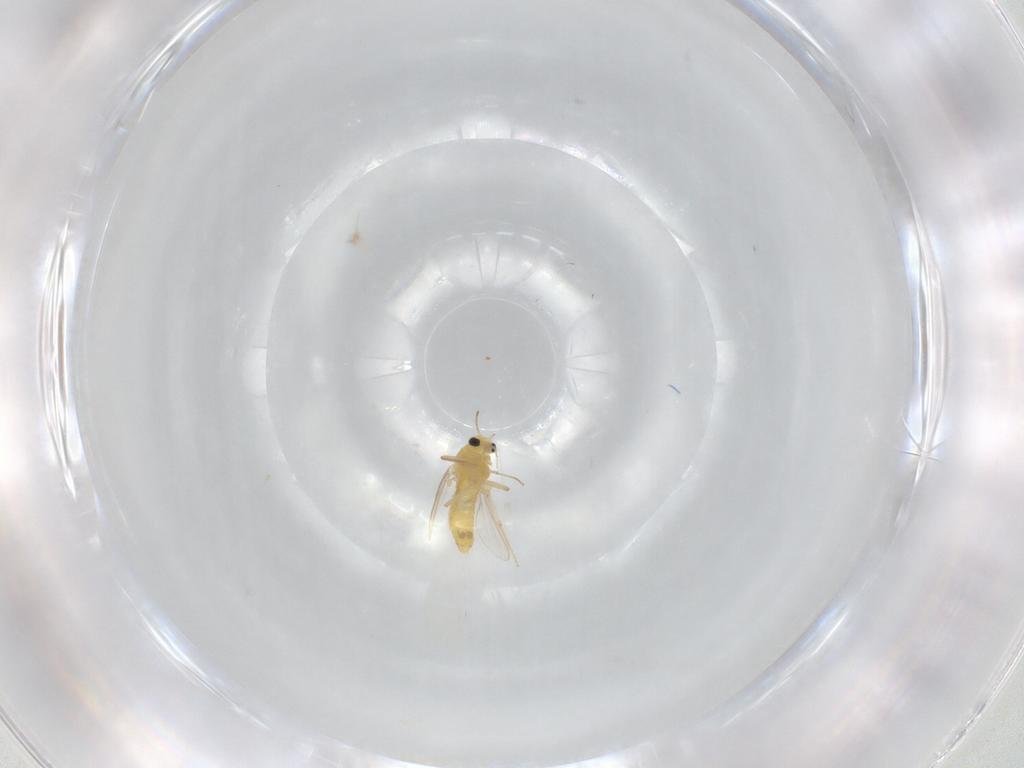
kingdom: Animalia
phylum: Arthropoda
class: Insecta
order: Diptera
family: Chironomidae
